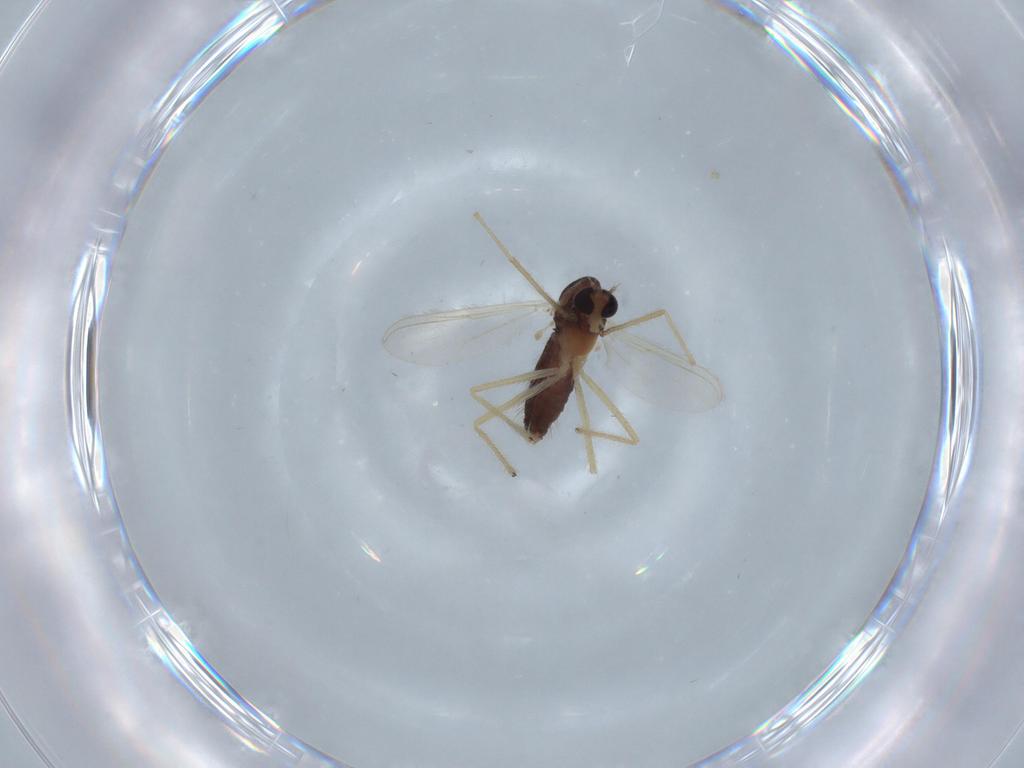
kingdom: Animalia
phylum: Arthropoda
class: Insecta
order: Diptera
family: Chironomidae
